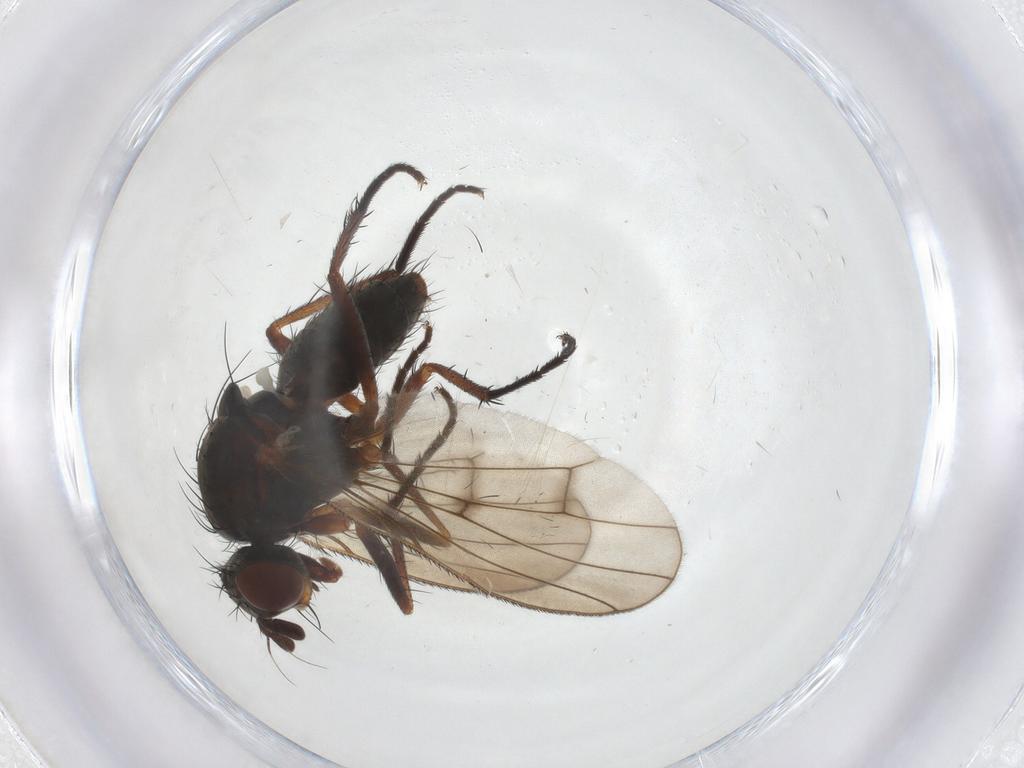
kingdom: Animalia
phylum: Arthropoda
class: Insecta
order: Diptera
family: Anthomyiidae
